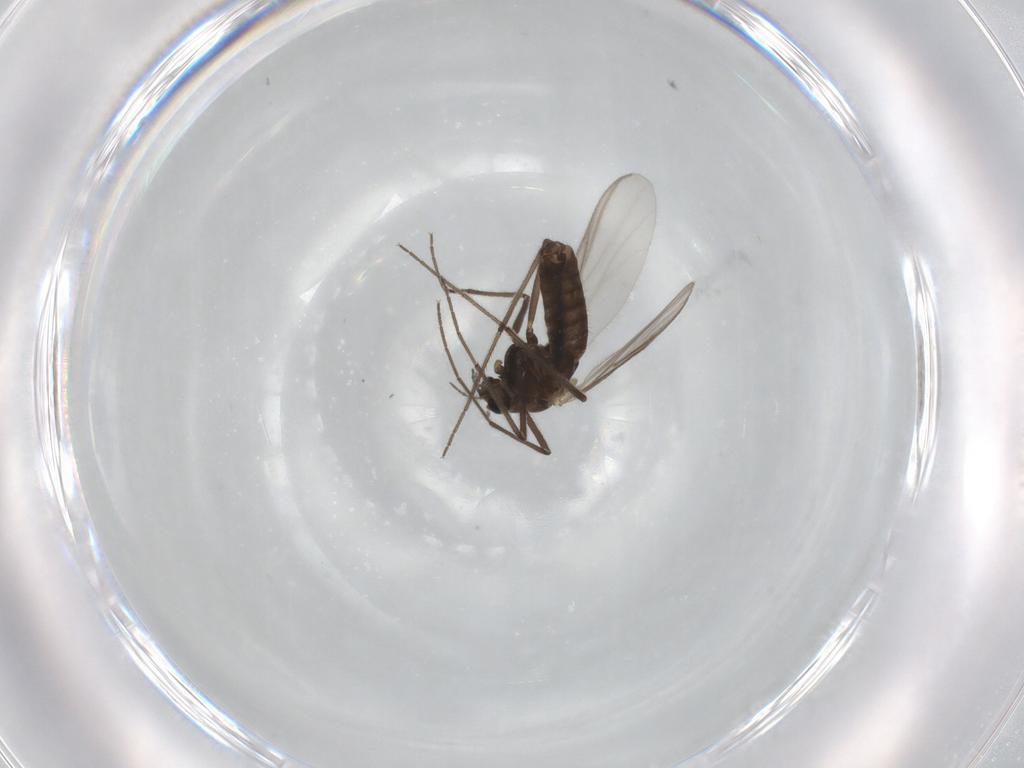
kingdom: Animalia
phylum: Arthropoda
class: Insecta
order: Diptera
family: Chironomidae
